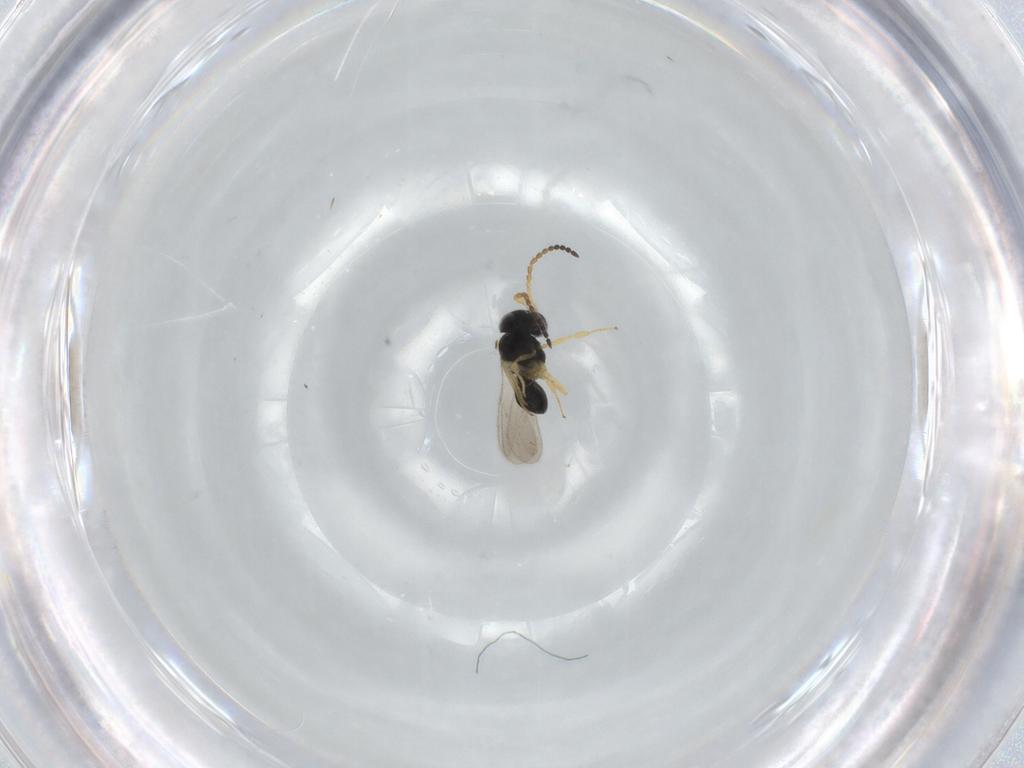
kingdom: Animalia
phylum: Arthropoda
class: Insecta
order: Hymenoptera
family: Scelionidae
